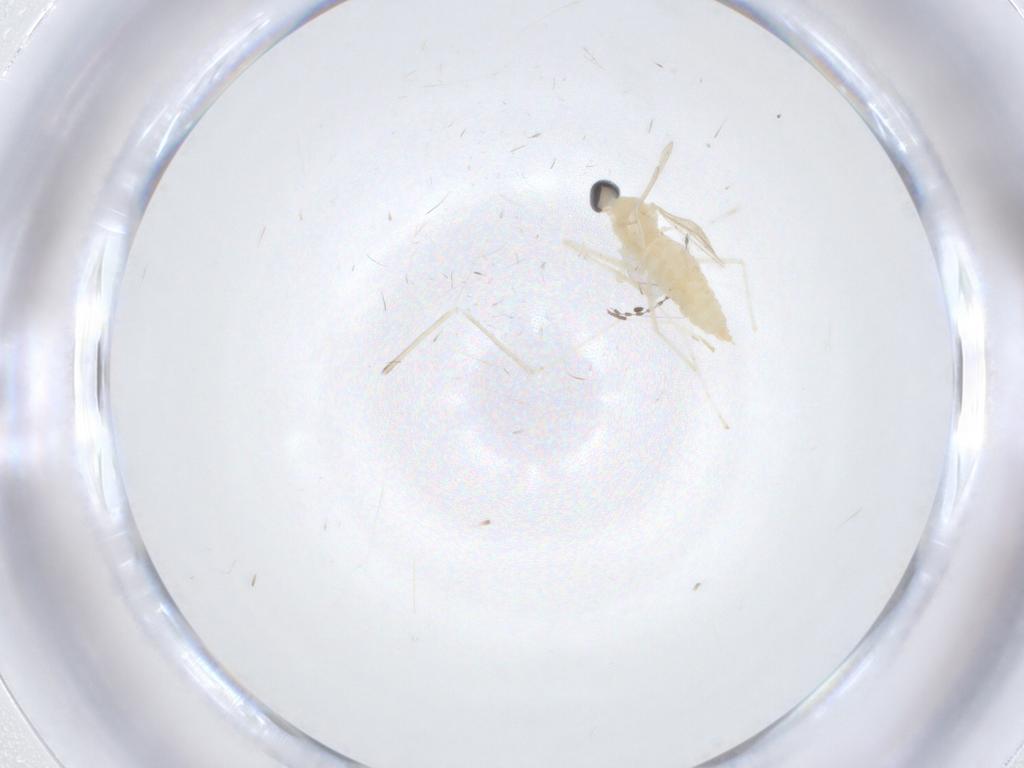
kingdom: Animalia
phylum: Arthropoda
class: Insecta
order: Diptera
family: Cecidomyiidae
